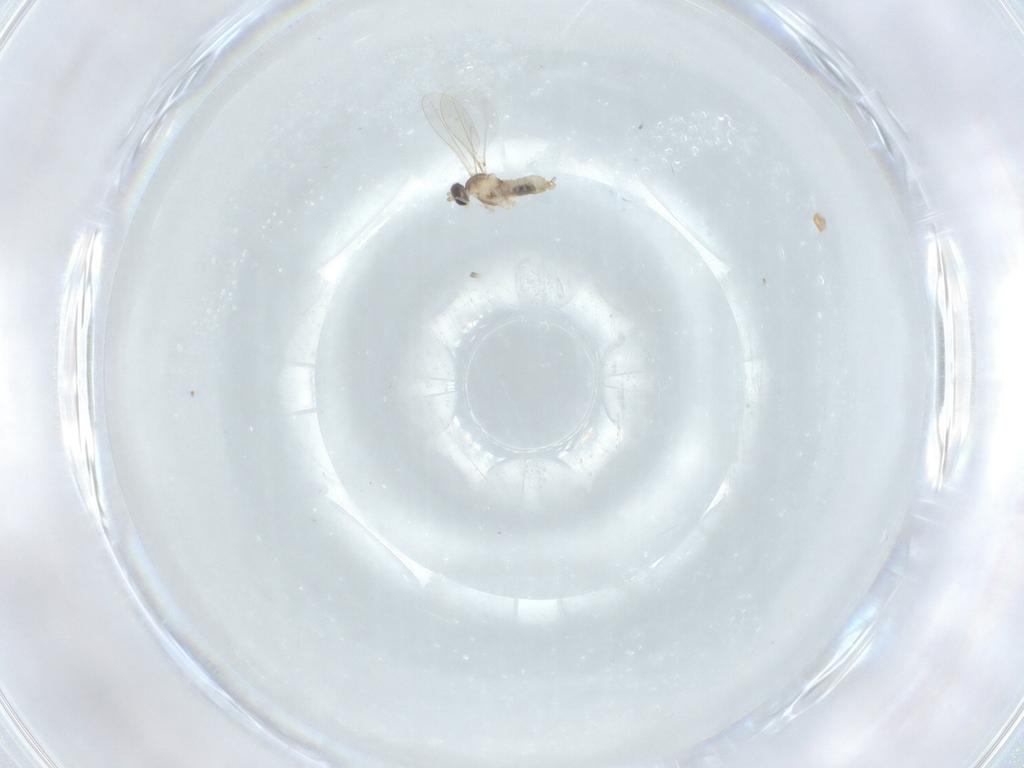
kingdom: Animalia
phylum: Arthropoda
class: Insecta
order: Diptera
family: Cecidomyiidae
